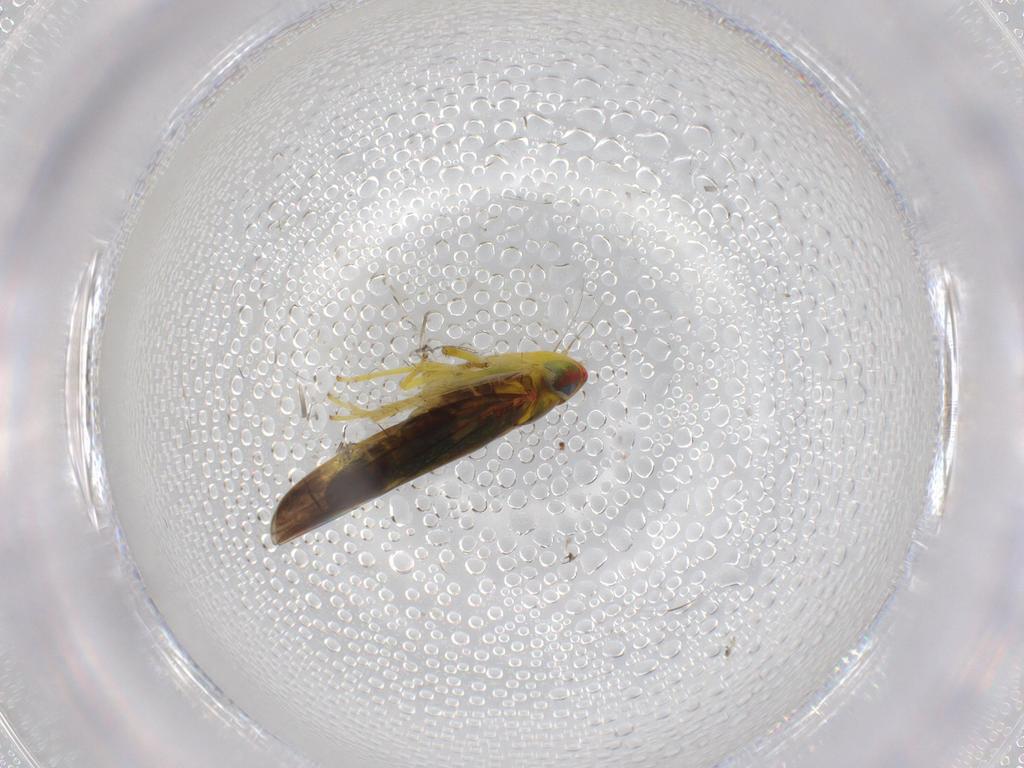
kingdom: Animalia
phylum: Arthropoda
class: Insecta
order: Hemiptera
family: Cicadellidae
